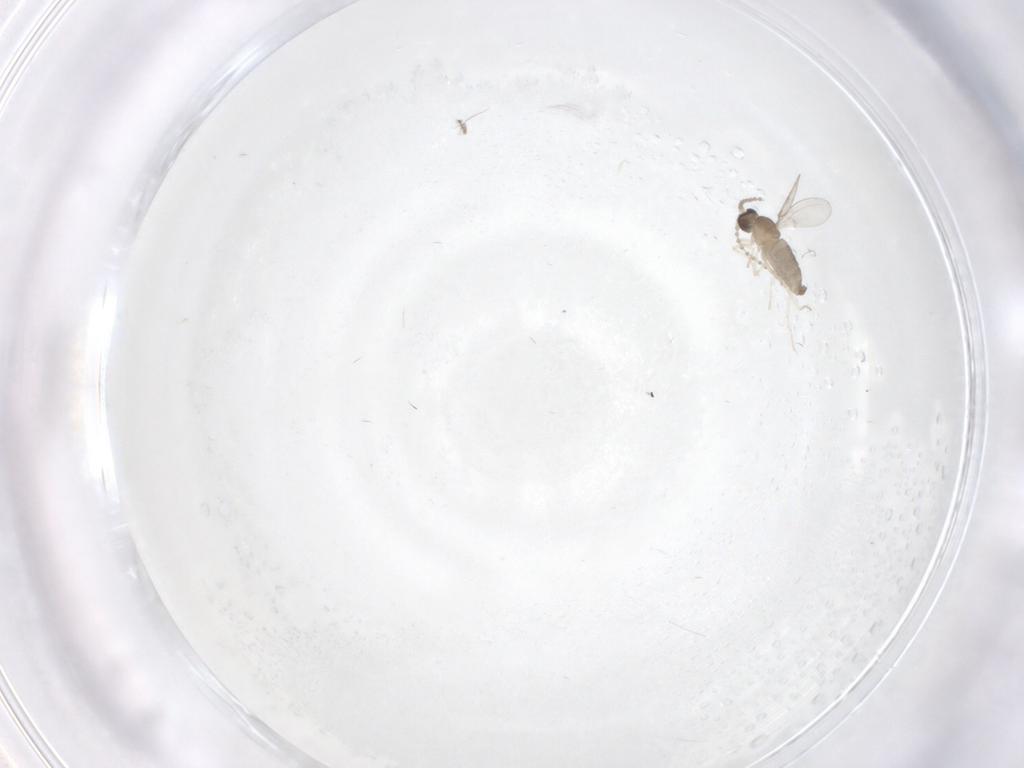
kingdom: Animalia
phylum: Arthropoda
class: Insecta
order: Diptera
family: Cecidomyiidae
